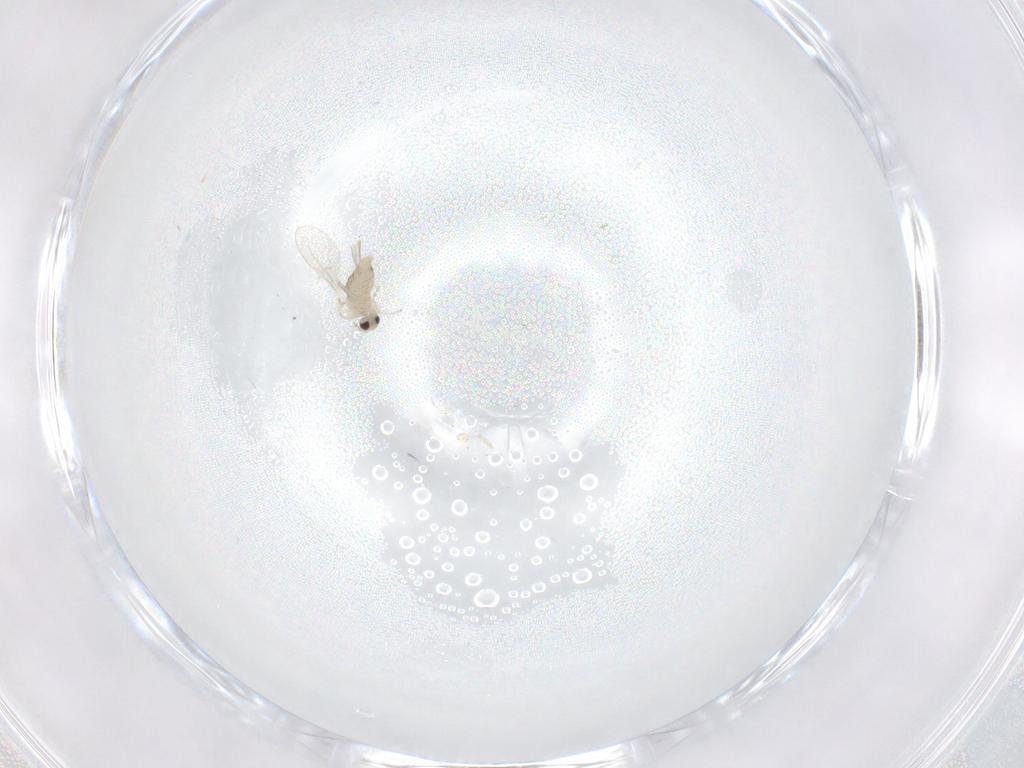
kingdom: Animalia
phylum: Arthropoda
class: Insecta
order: Diptera
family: Cecidomyiidae
